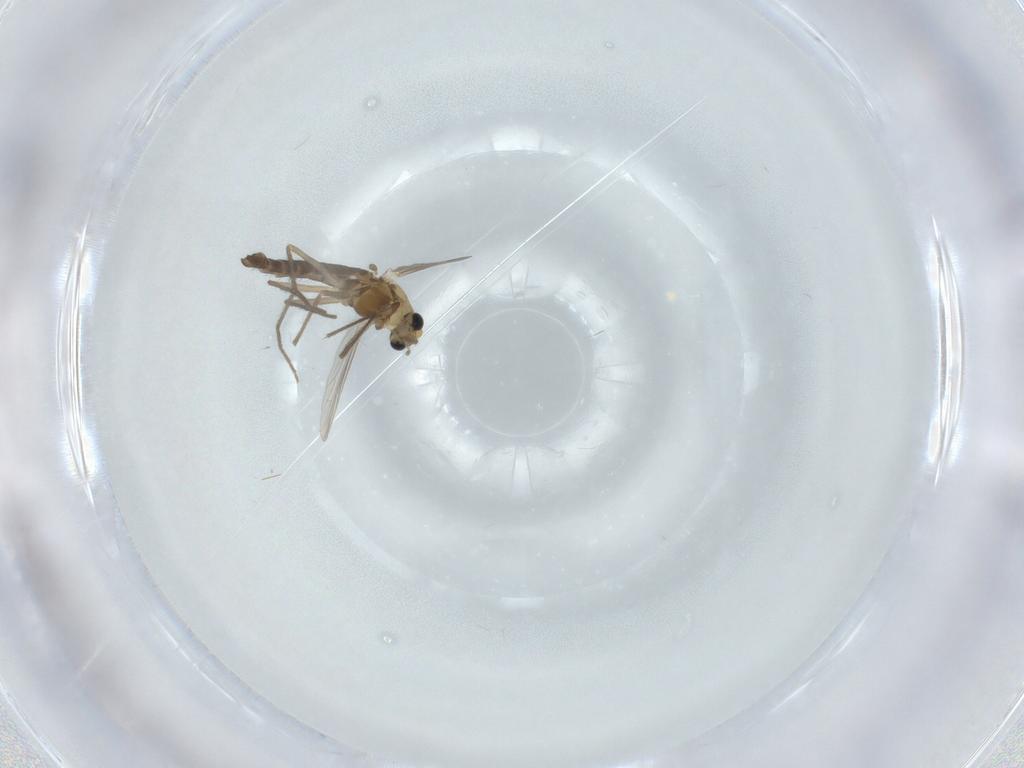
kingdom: Animalia
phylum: Arthropoda
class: Insecta
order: Diptera
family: Chironomidae
